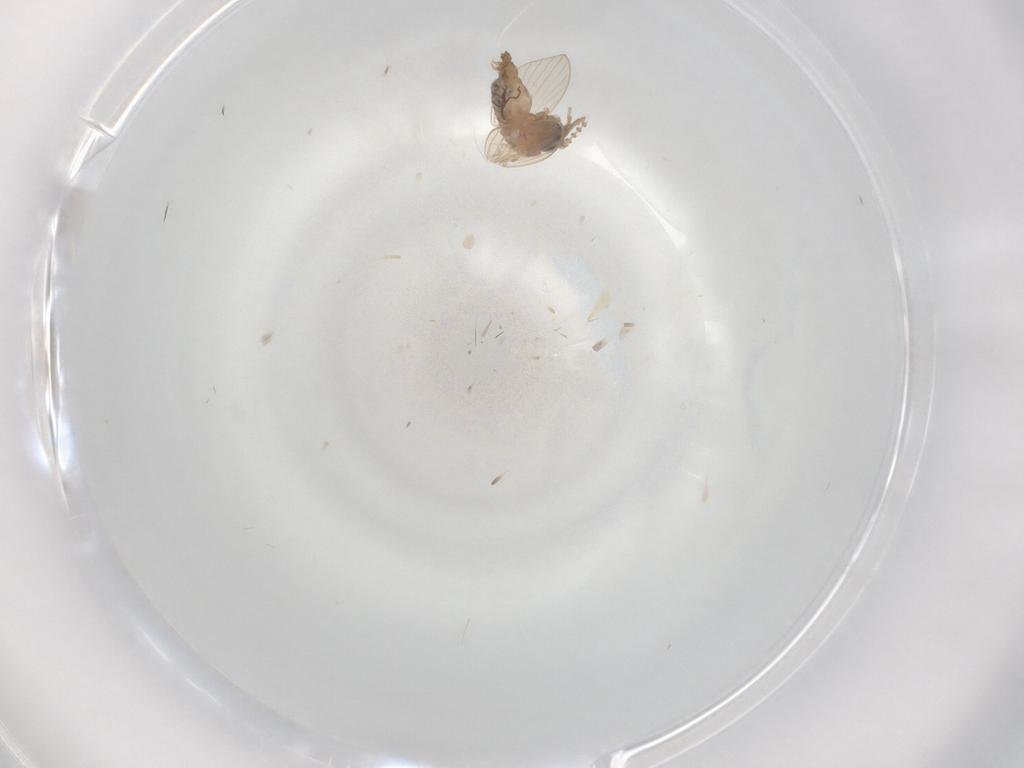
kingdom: Animalia
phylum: Arthropoda
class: Insecta
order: Diptera
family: Psychodidae
